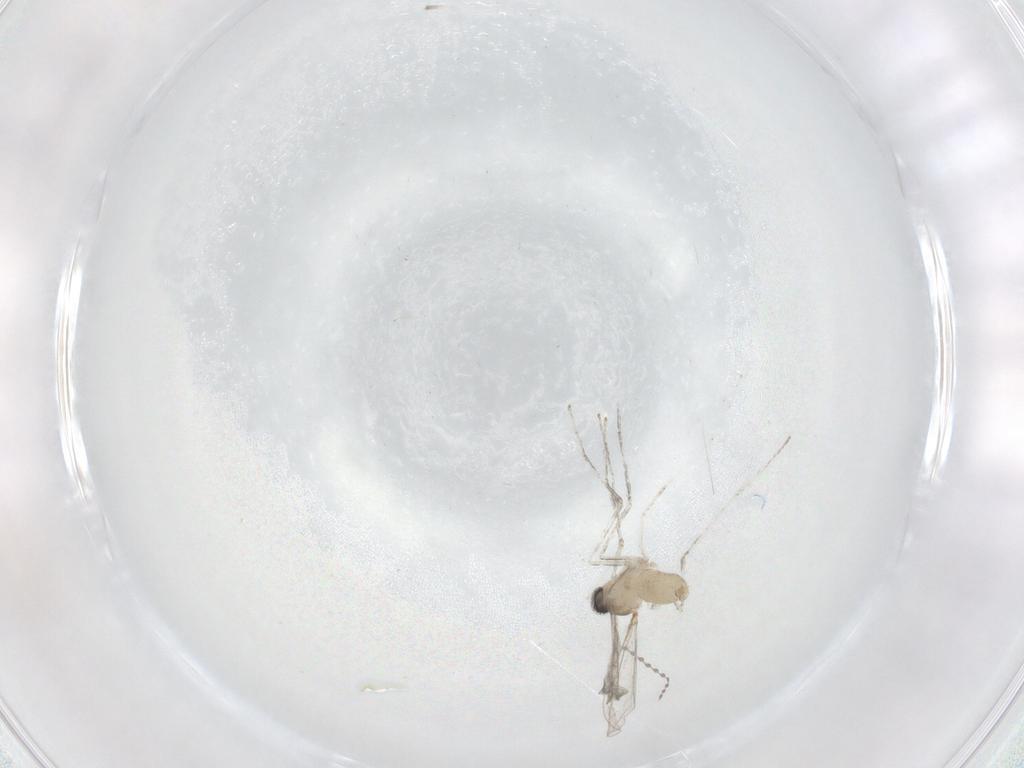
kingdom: Animalia
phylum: Arthropoda
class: Insecta
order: Diptera
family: Cecidomyiidae
